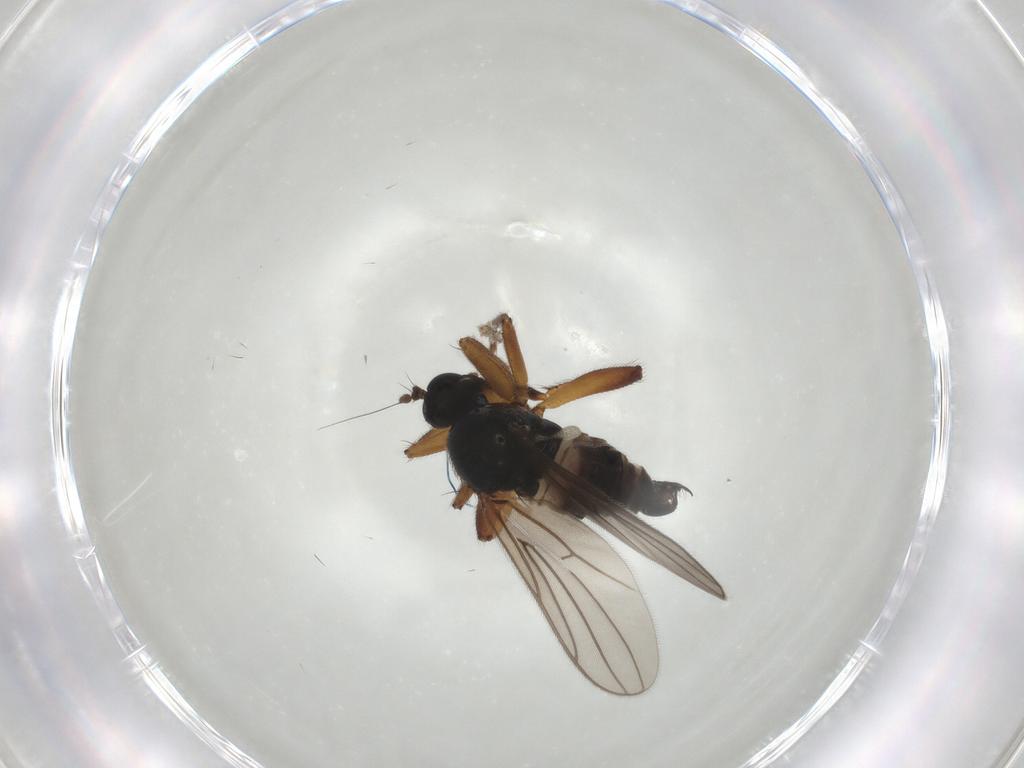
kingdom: Animalia
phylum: Arthropoda
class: Insecta
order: Diptera
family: Hybotidae
